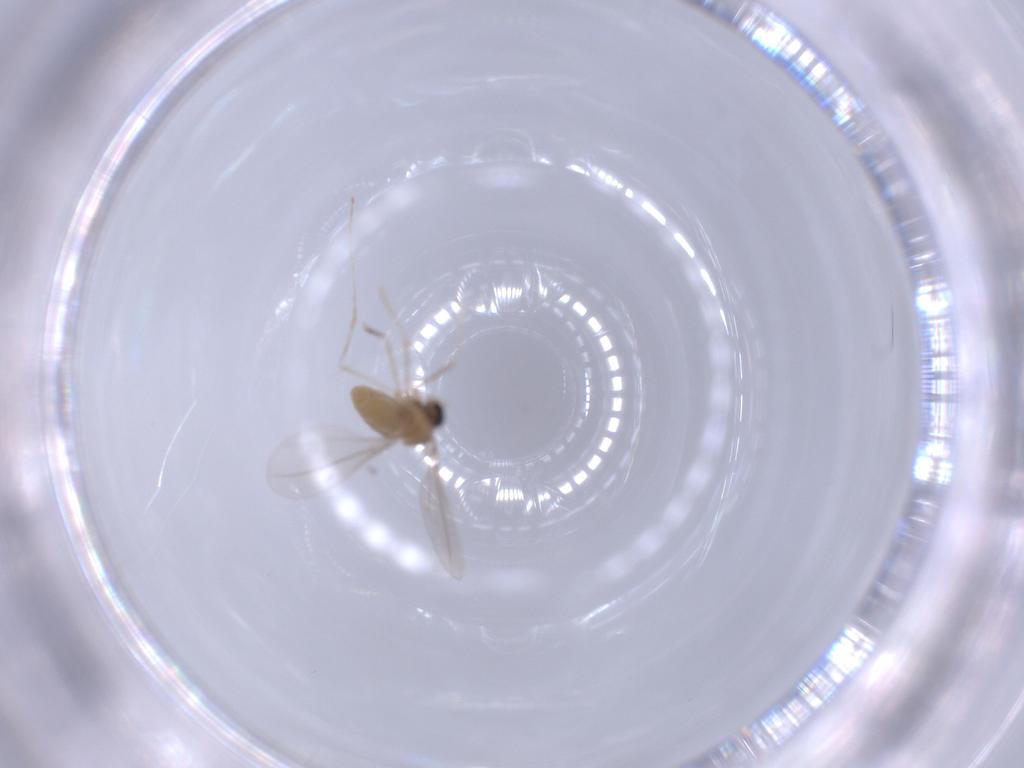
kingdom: Animalia
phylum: Arthropoda
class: Insecta
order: Diptera
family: Cecidomyiidae
